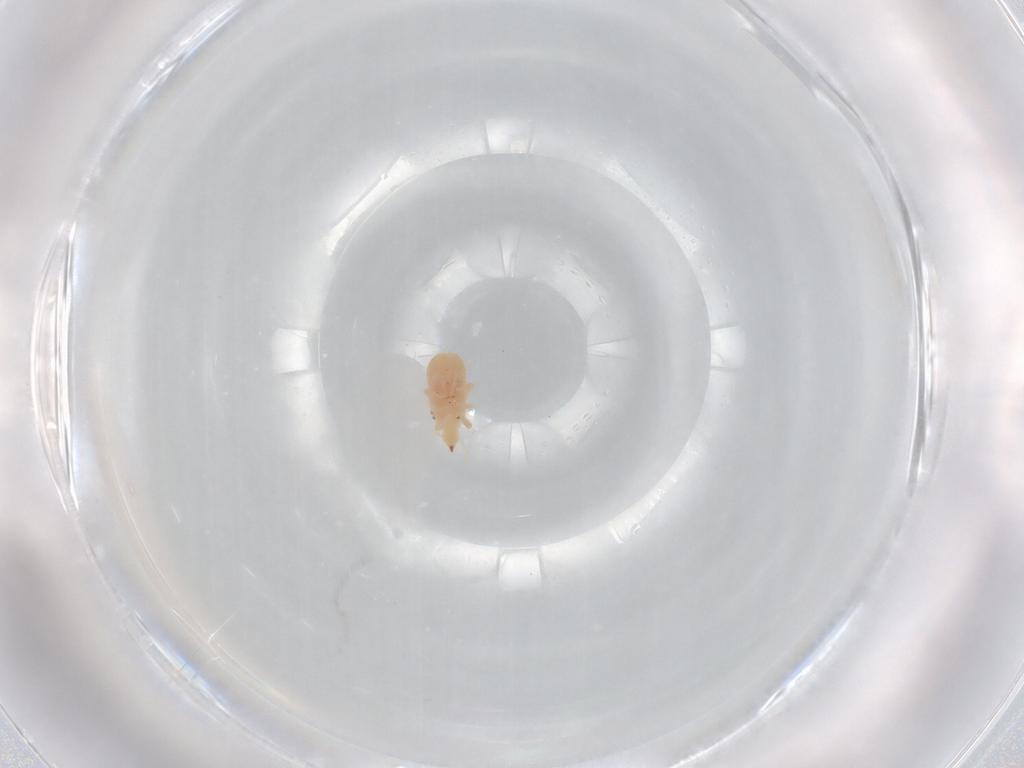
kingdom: Animalia
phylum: Arthropoda
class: Arachnida
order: Trombidiformes
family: Bdellidae
